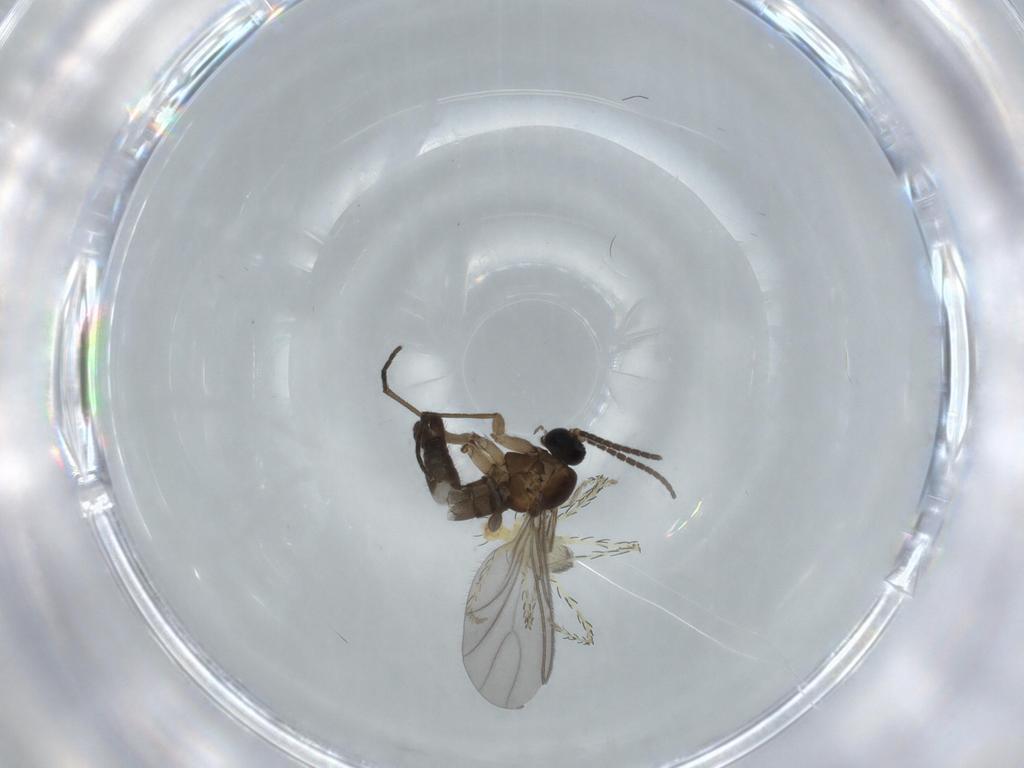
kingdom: Animalia
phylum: Arthropoda
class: Insecta
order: Diptera
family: Sciaridae
